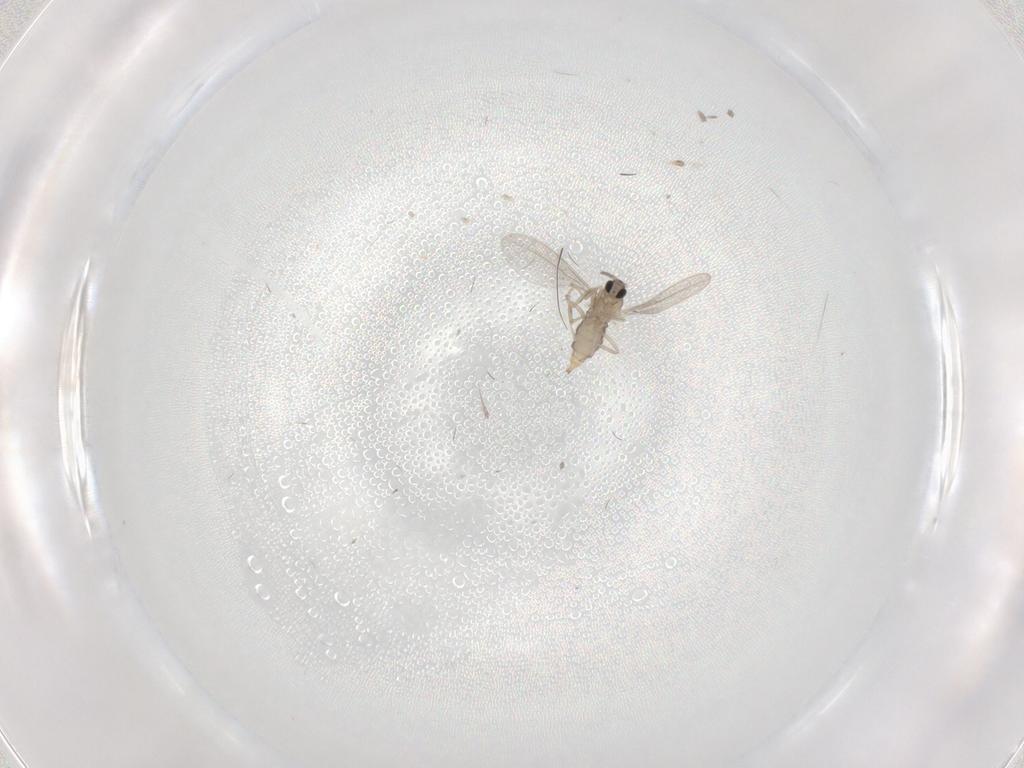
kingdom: Animalia
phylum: Arthropoda
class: Insecta
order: Diptera
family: Cecidomyiidae
